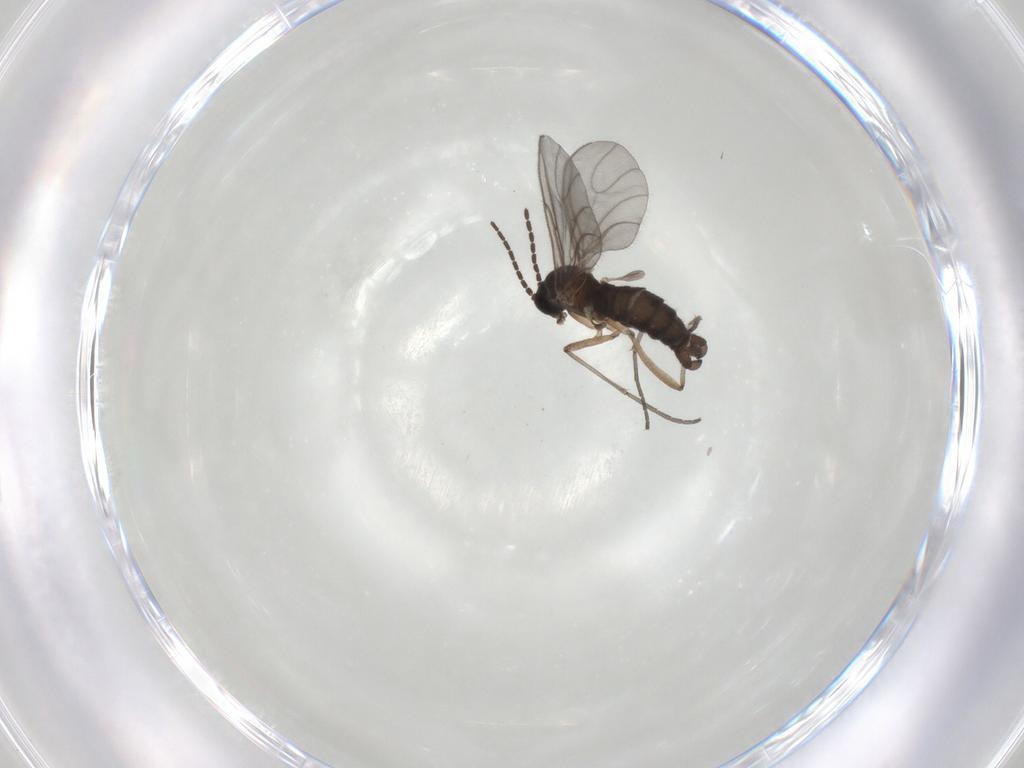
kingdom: Animalia
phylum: Arthropoda
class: Insecta
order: Diptera
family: Sciaridae
